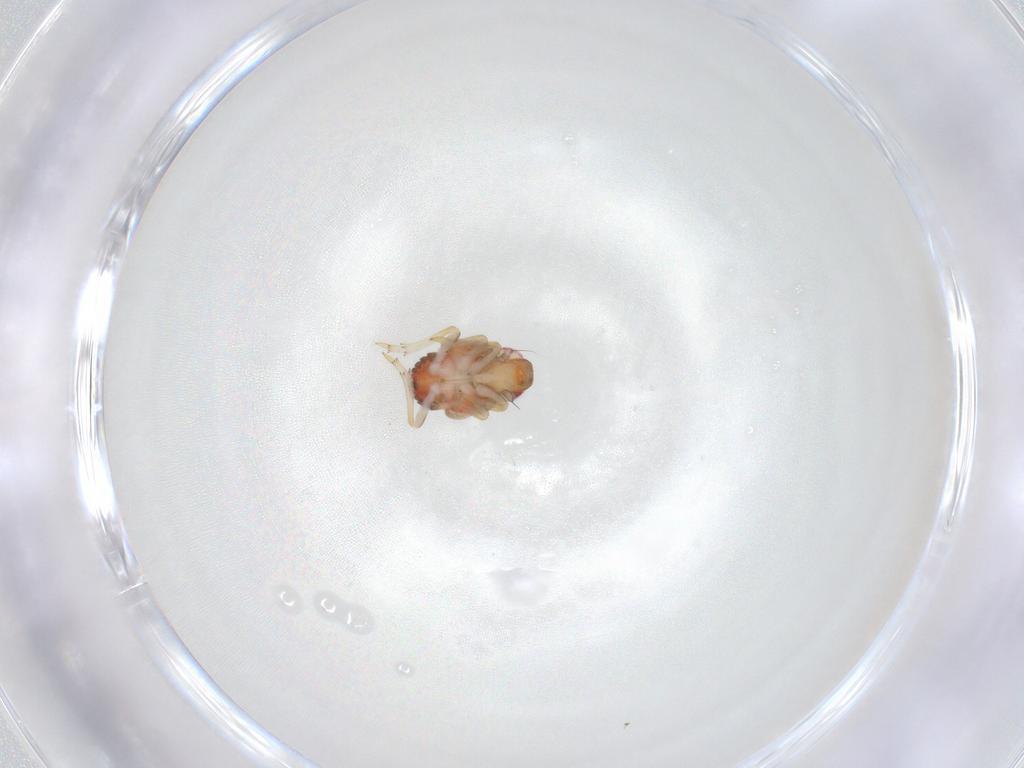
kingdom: Animalia
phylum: Arthropoda
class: Insecta
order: Hemiptera
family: Issidae
